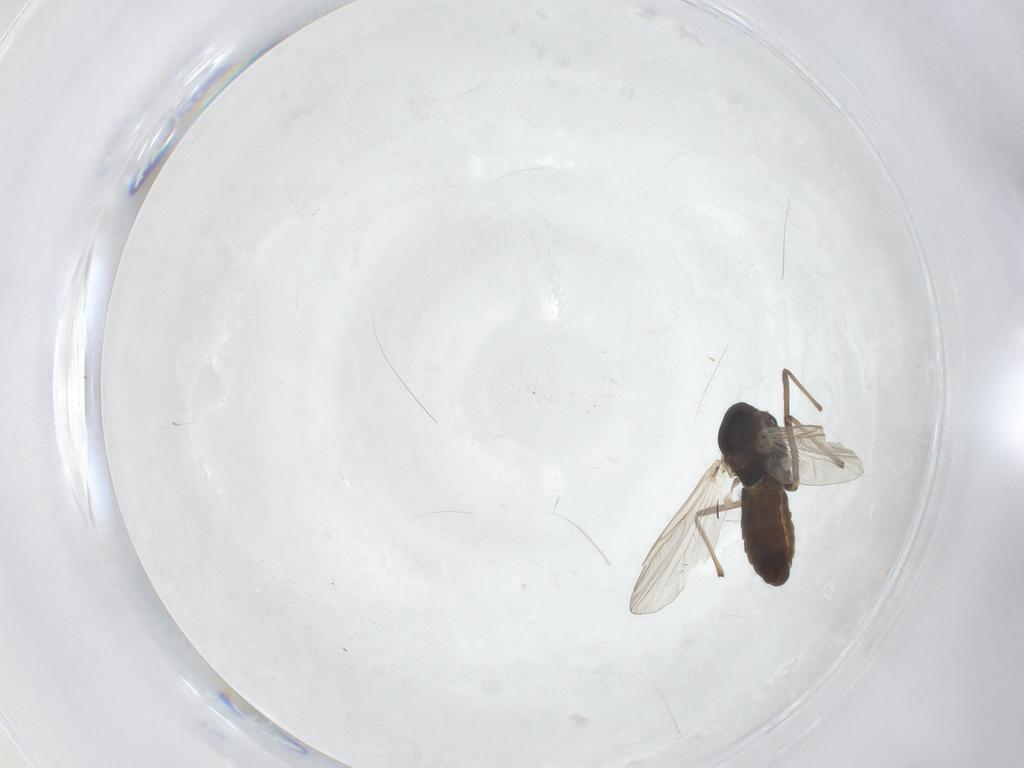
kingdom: Animalia
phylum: Arthropoda
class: Insecta
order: Diptera
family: Chironomidae
